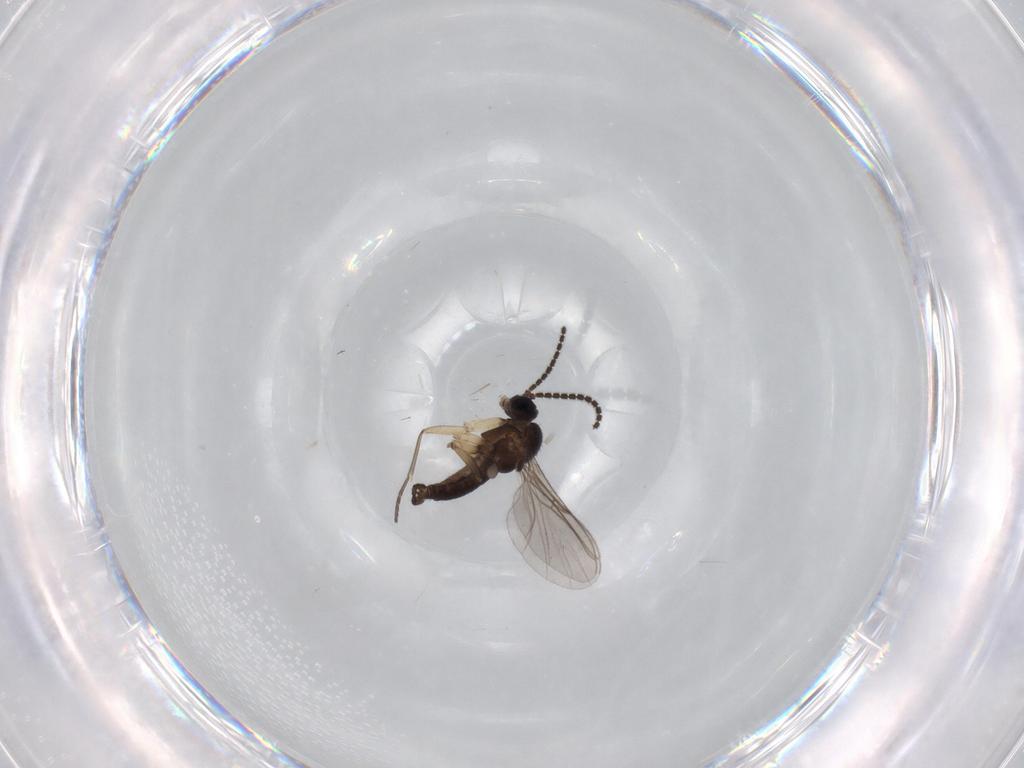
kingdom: Animalia
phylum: Arthropoda
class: Insecta
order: Diptera
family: Sciaridae
